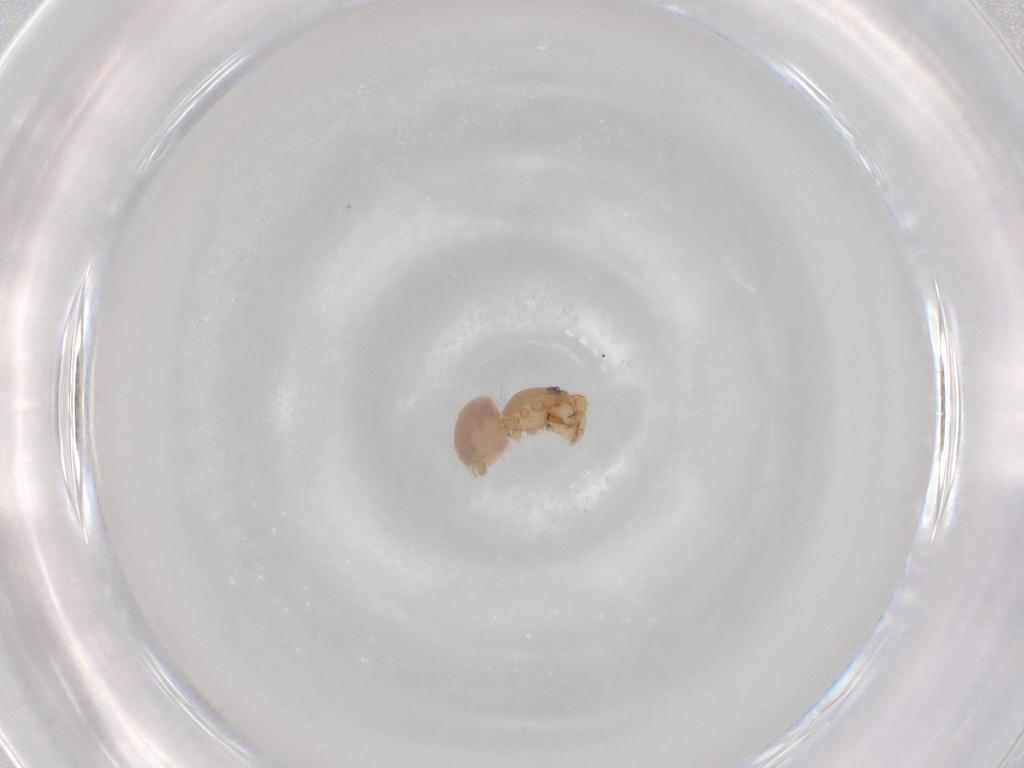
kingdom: Animalia
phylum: Arthropoda
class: Arachnida
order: Araneae
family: Oonopidae
